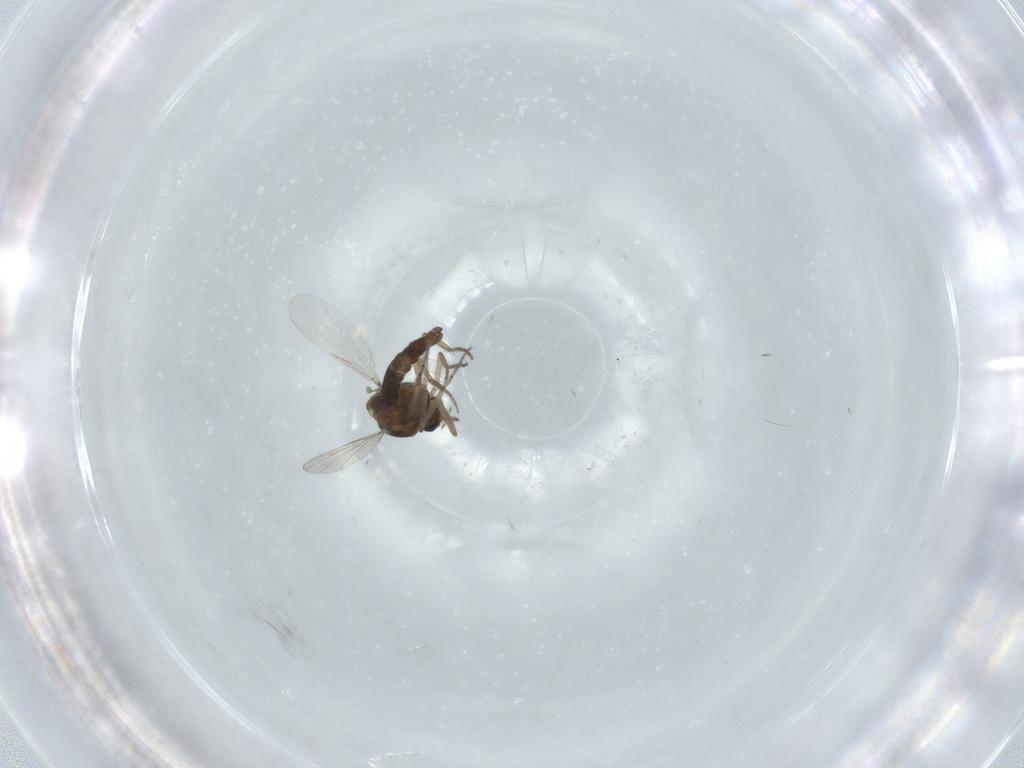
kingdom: Animalia
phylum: Arthropoda
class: Insecta
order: Diptera
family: Ceratopogonidae
